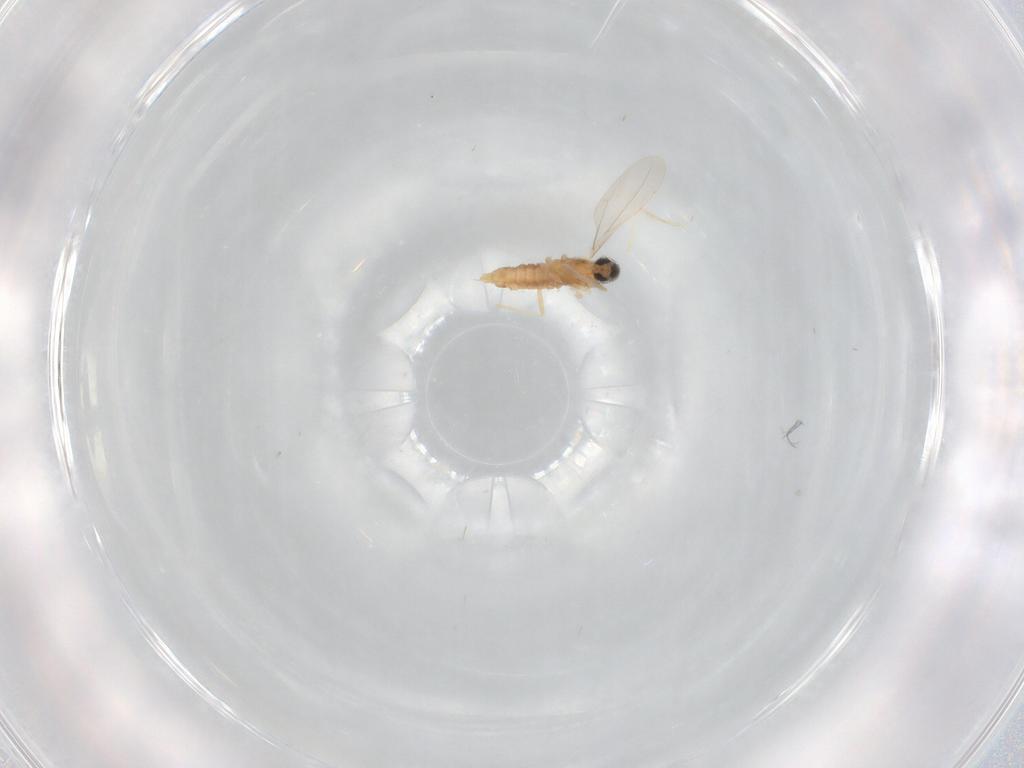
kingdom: Animalia
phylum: Arthropoda
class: Insecta
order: Diptera
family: Cecidomyiidae
